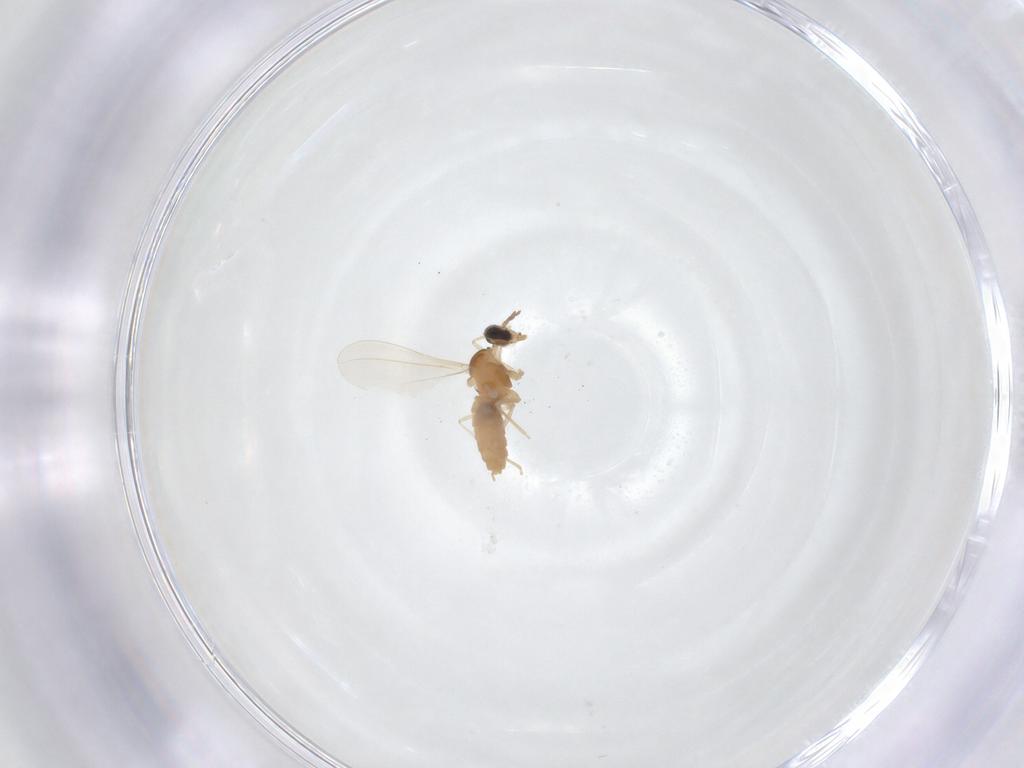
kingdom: Animalia
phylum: Arthropoda
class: Insecta
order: Diptera
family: Cecidomyiidae
